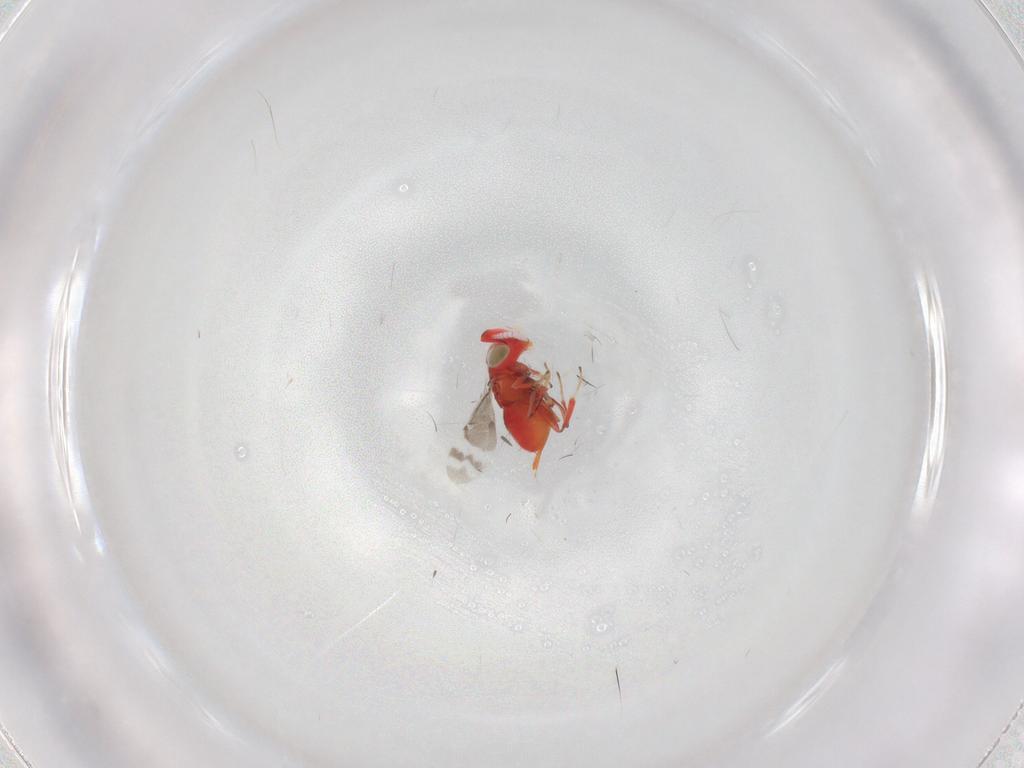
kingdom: Animalia
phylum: Arthropoda
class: Insecta
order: Hymenoptera
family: Encyrtidae
